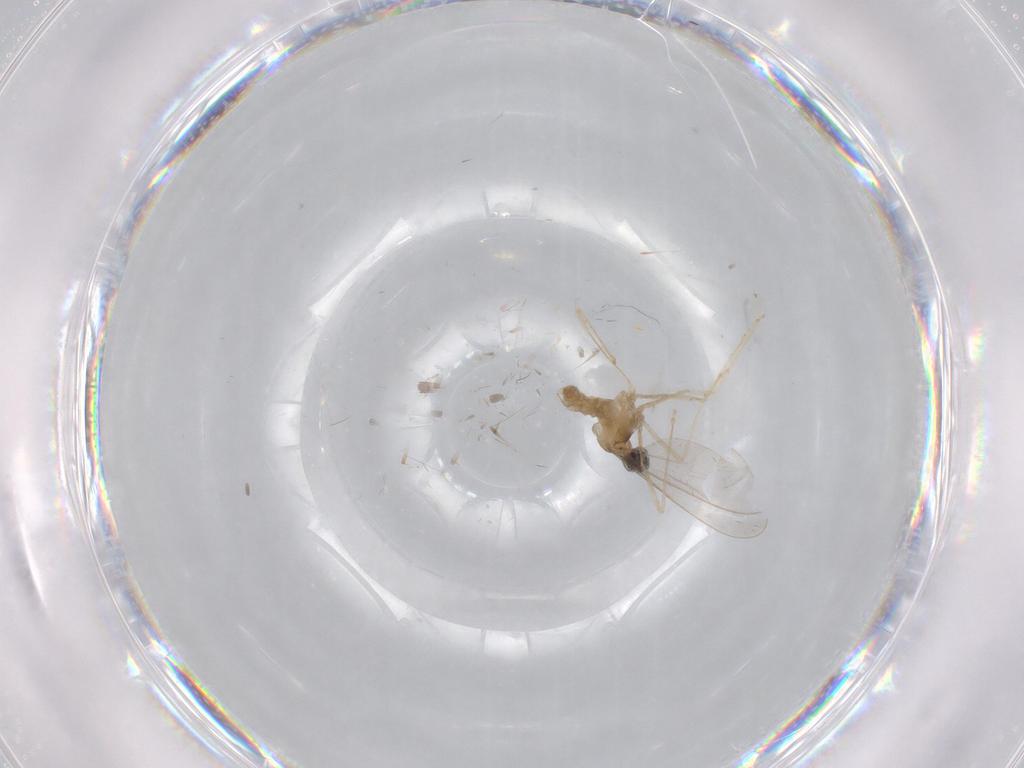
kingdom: Animalia
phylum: Arthropoda
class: Insecta
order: Diptera
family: Cecidomyiidae
